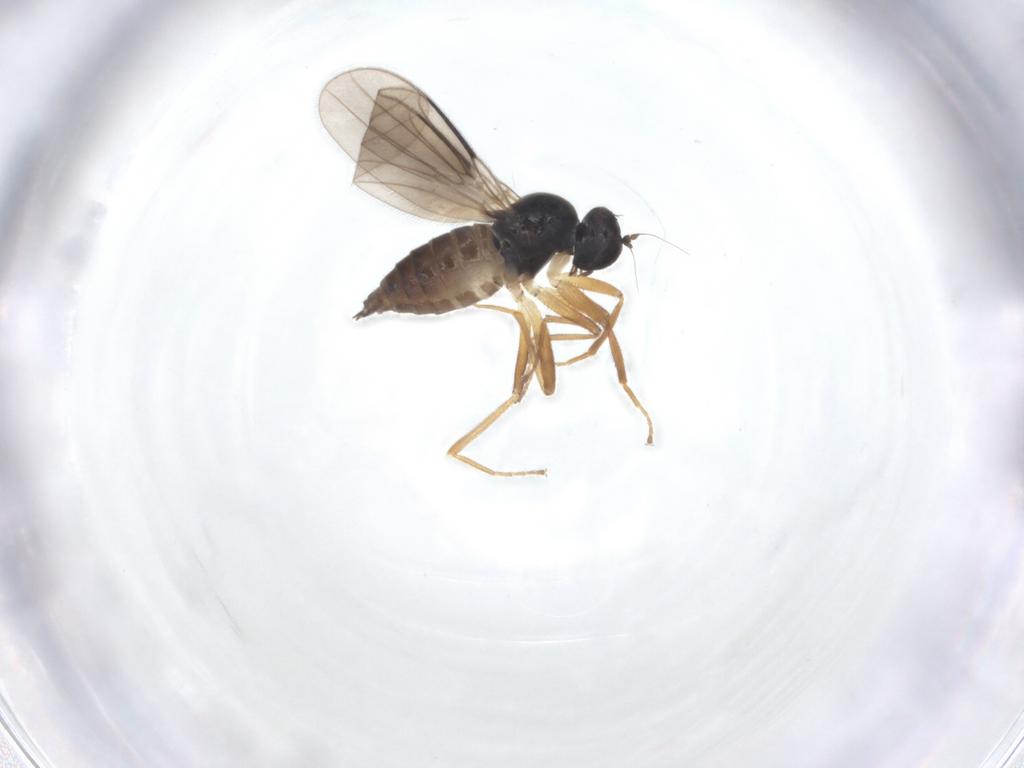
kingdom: Animalia
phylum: Arthropoda
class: Insecta
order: Diptera
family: Hybotidae
